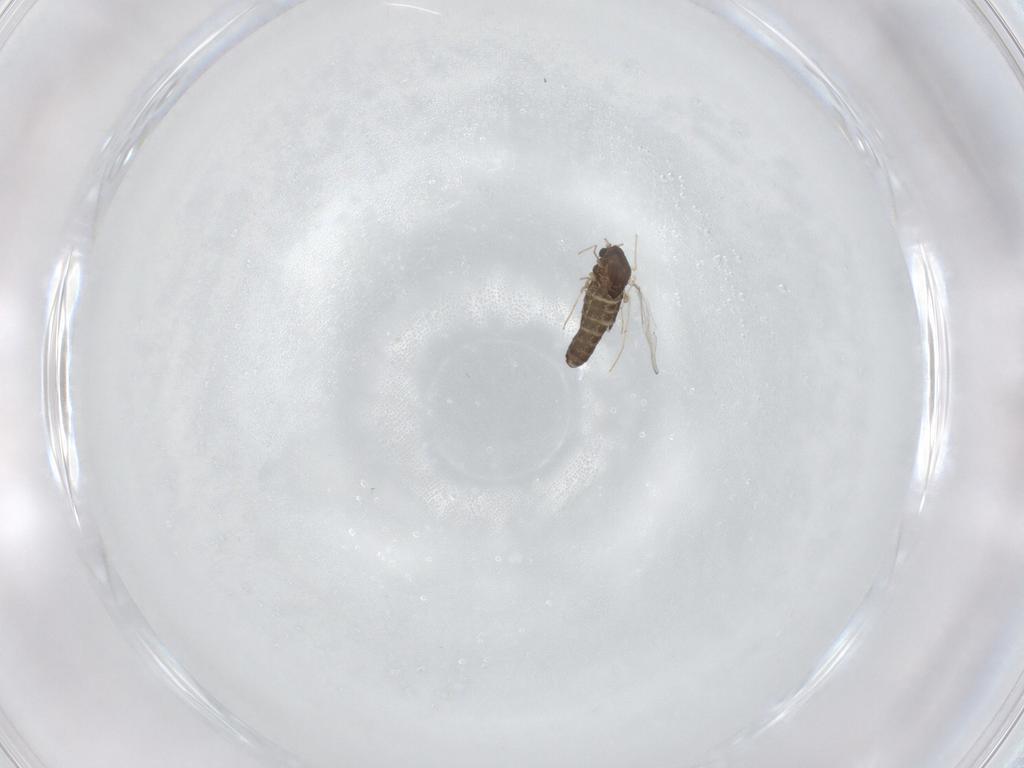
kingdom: Animalia
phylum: Arthropoda
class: Insecta
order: Diptera
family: Chironomidae
